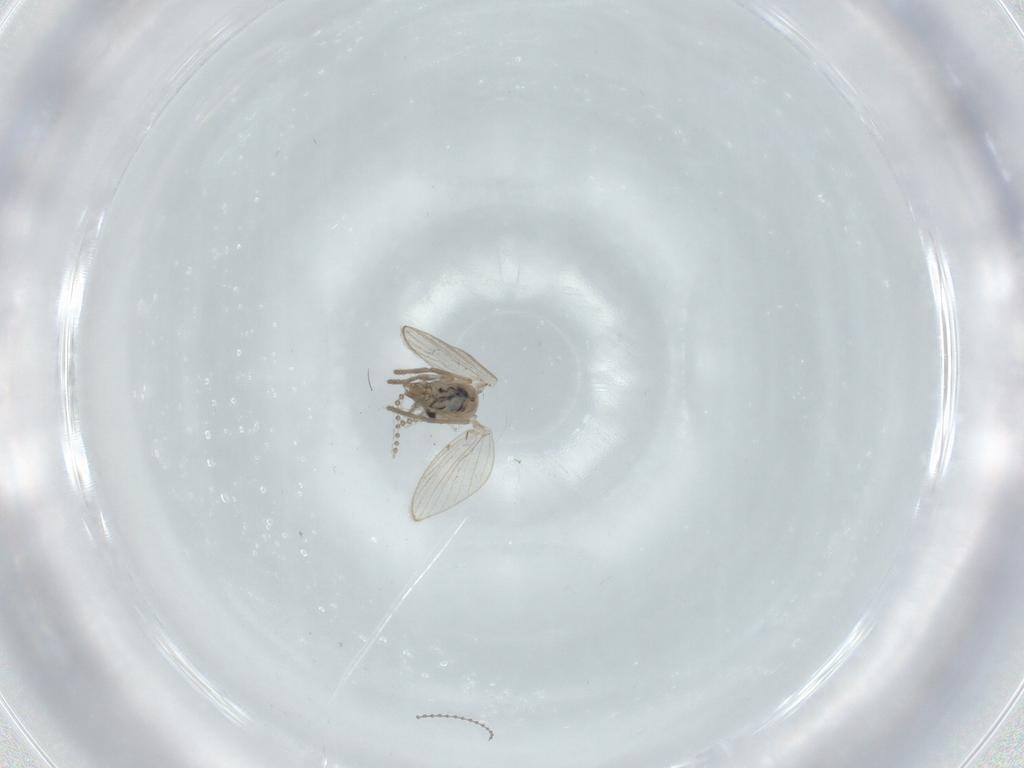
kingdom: Animalia
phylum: Arthropoda
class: Insecta
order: Diptera
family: Psychodidae
